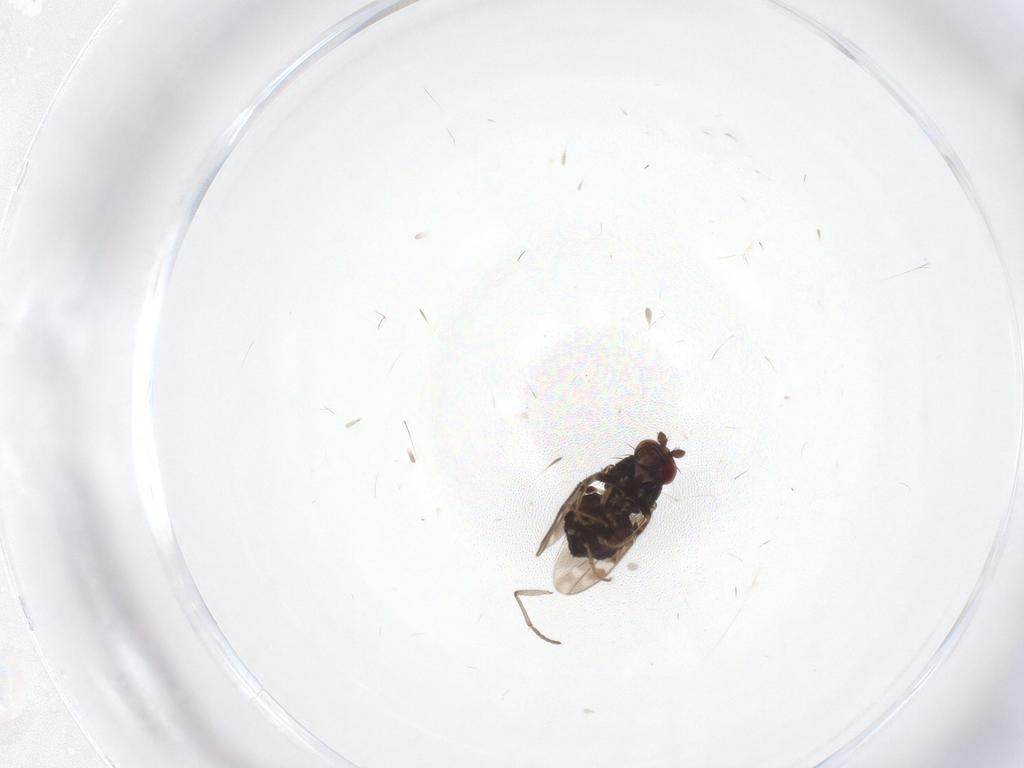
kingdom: Animalia
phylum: Arthropoda
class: Insecta
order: Diptera
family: Sphaeroceridae
